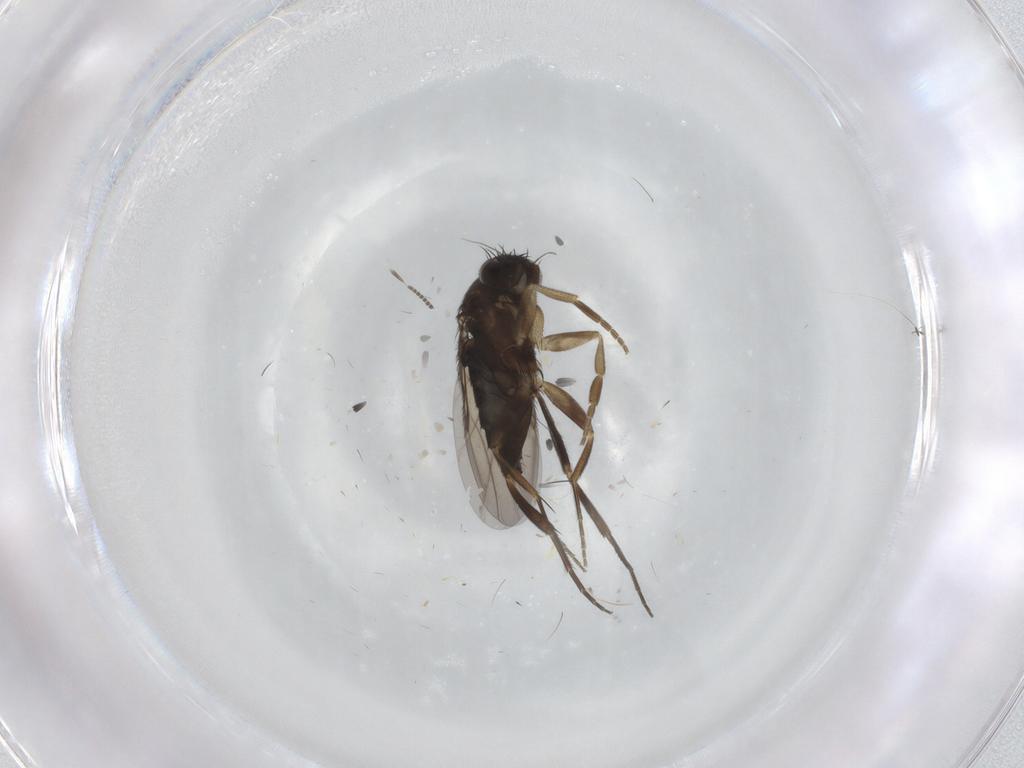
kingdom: Animalia
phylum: Arthropoda
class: Insecta
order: Diptera
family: Phoridae
